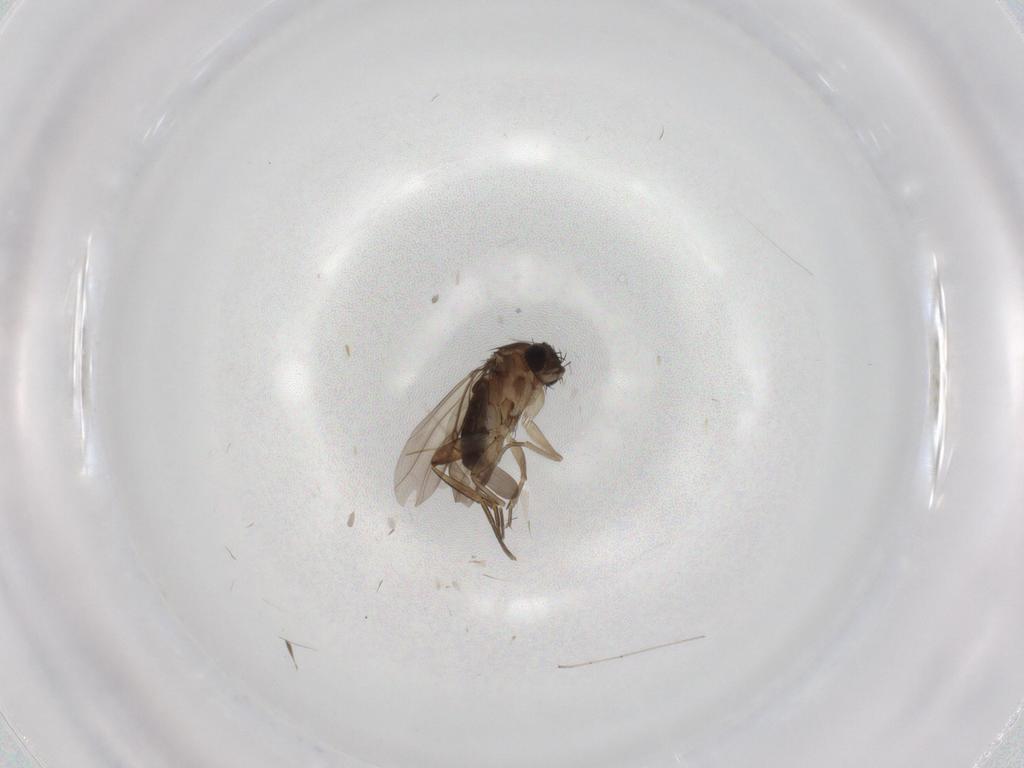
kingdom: Animalia
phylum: Arthropoda
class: Insecta
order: Diptera
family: Sciaridae
